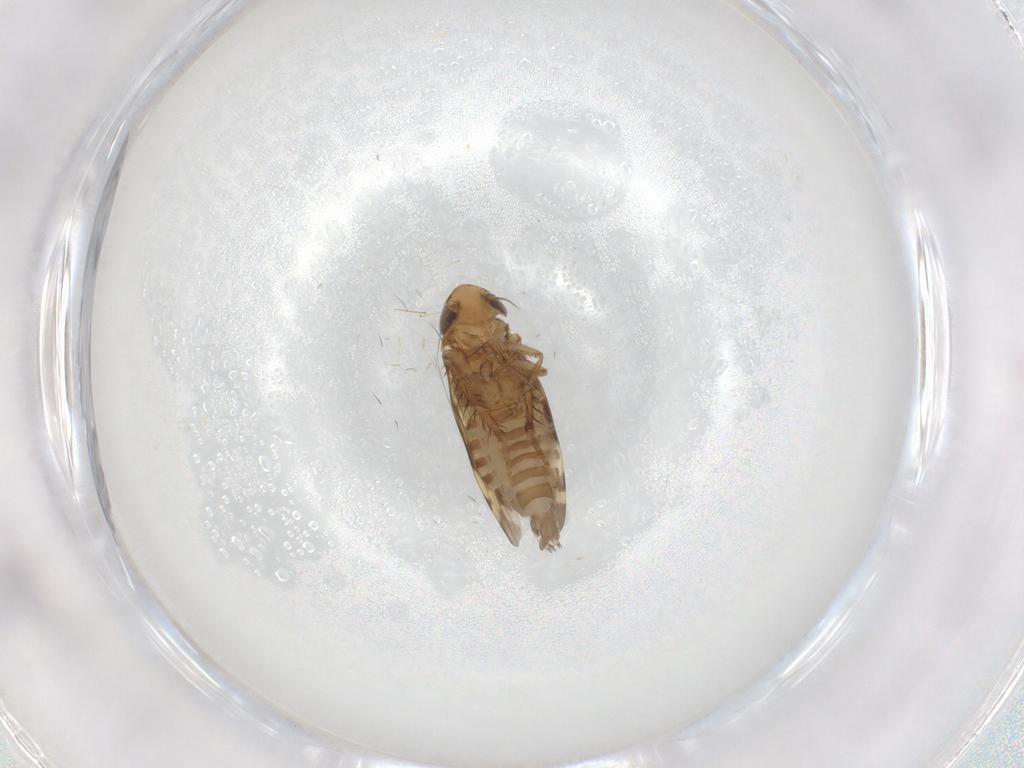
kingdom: Animalia
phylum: Arthropoda
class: Insecta
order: Hemiptera
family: Cicadellidae
